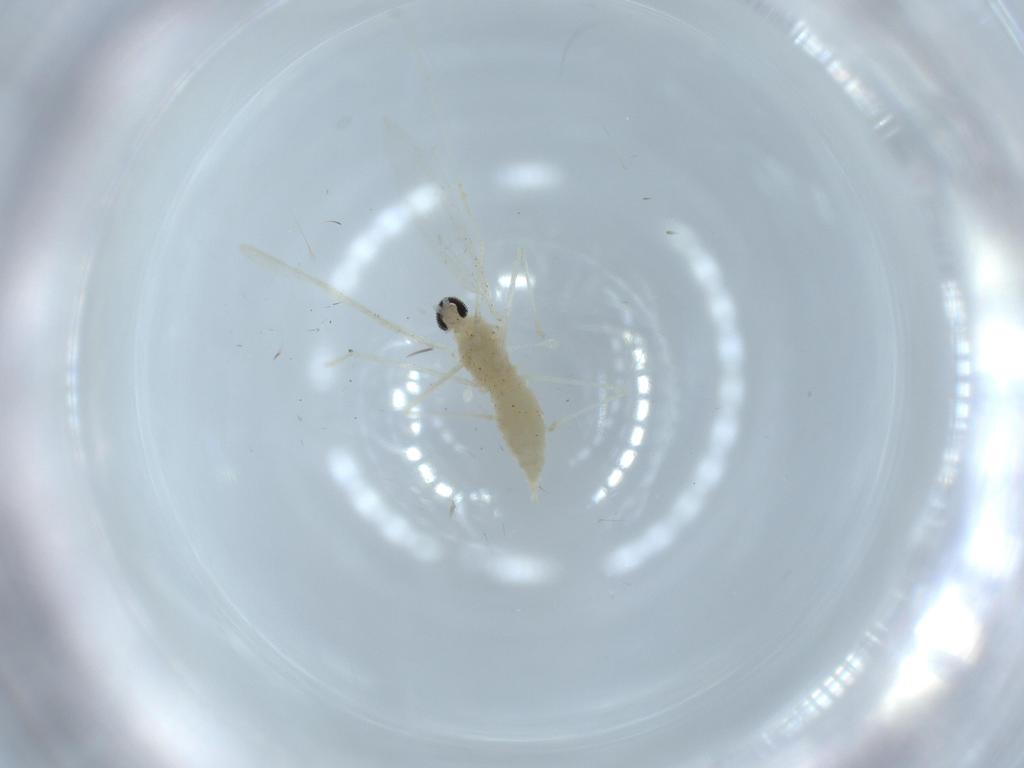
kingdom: Animalia
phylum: Arthropoda
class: Insecta
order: Diptera
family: Cecidomyiidae
